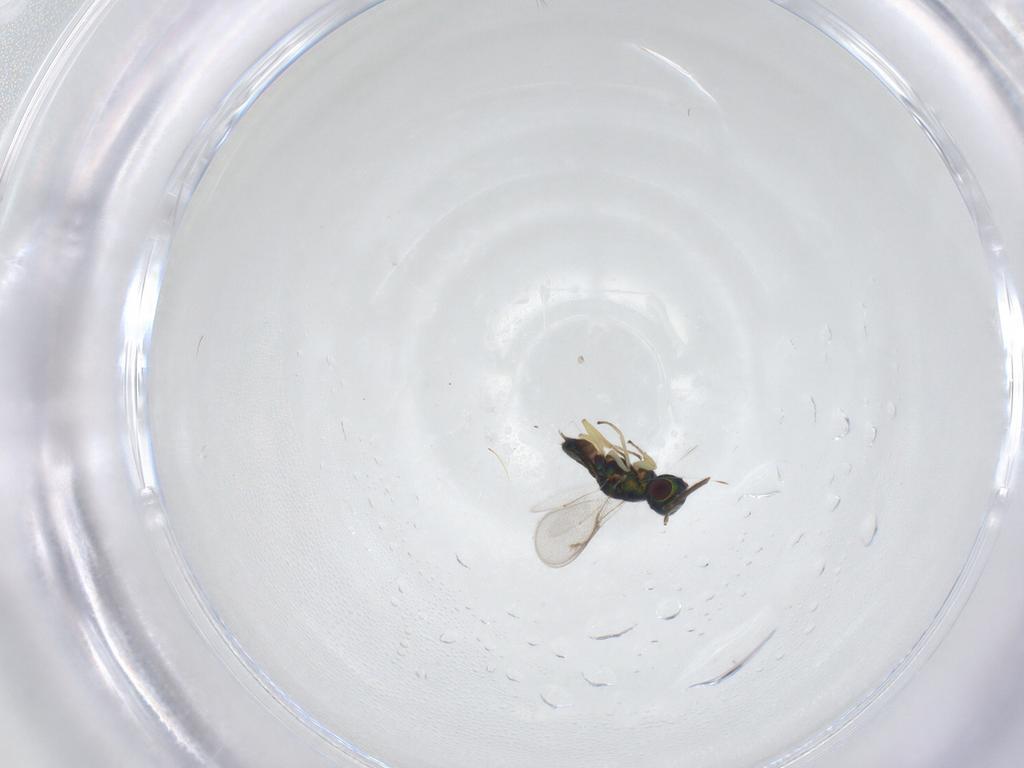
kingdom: Animalia
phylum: Arthropoda
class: Insecta
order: Hymenoptera
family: Eupelmidae
